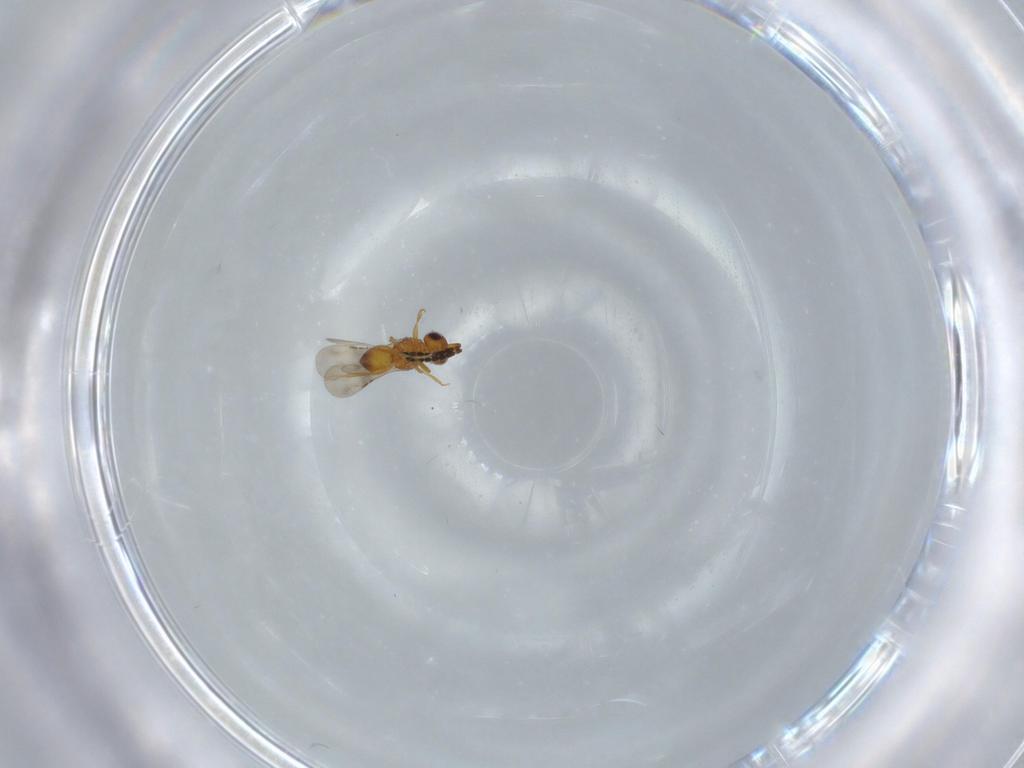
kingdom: Animalia
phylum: Arthropoda
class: Insecta
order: Hymenoptera
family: Ceraphronidae
